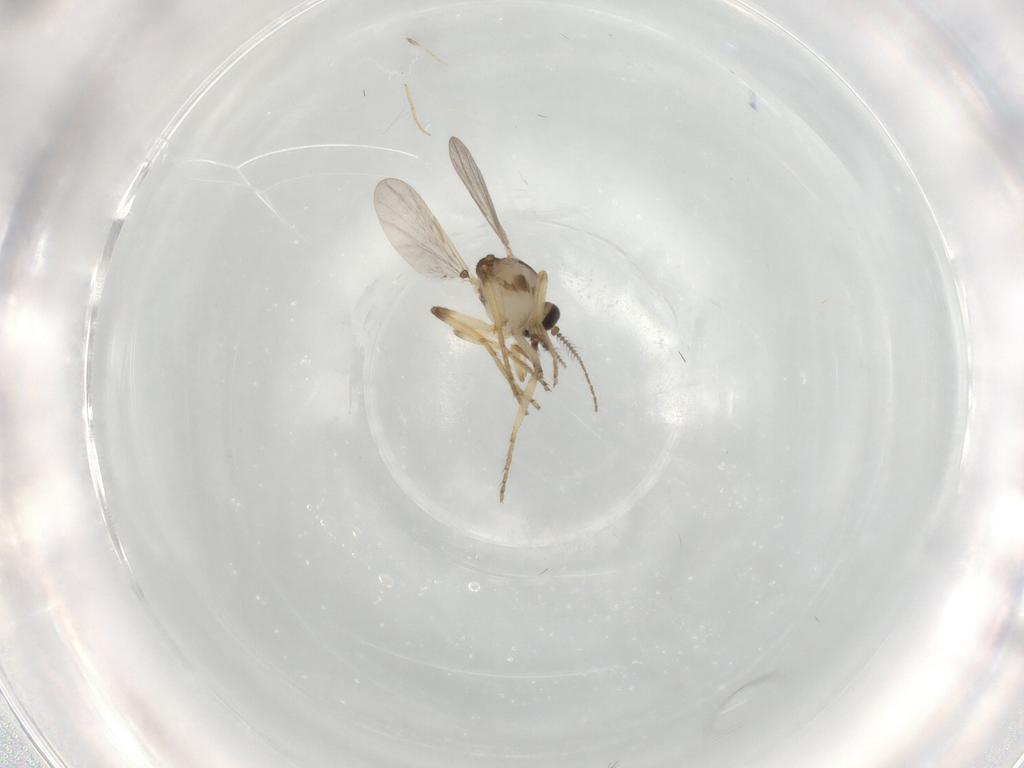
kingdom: Animalia
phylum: Arthropoda
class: Insecta
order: Diptera
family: Chironomidae
